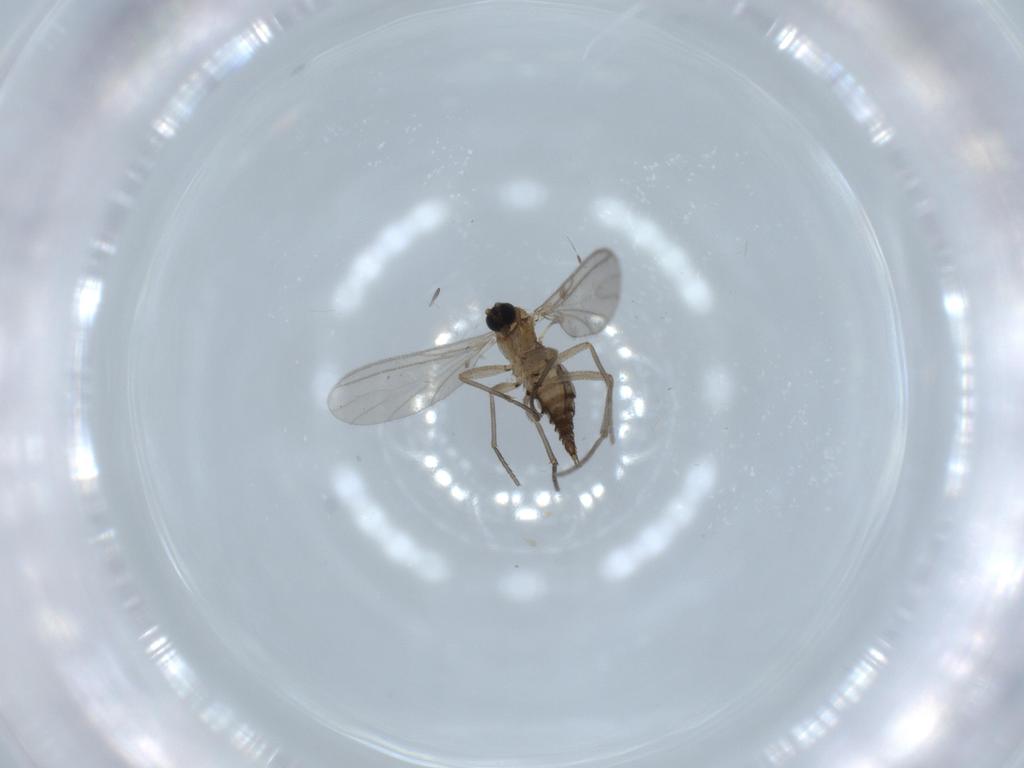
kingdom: Animalia
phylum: Arthropoda
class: Insecta
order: Diptera
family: Sciaridae
